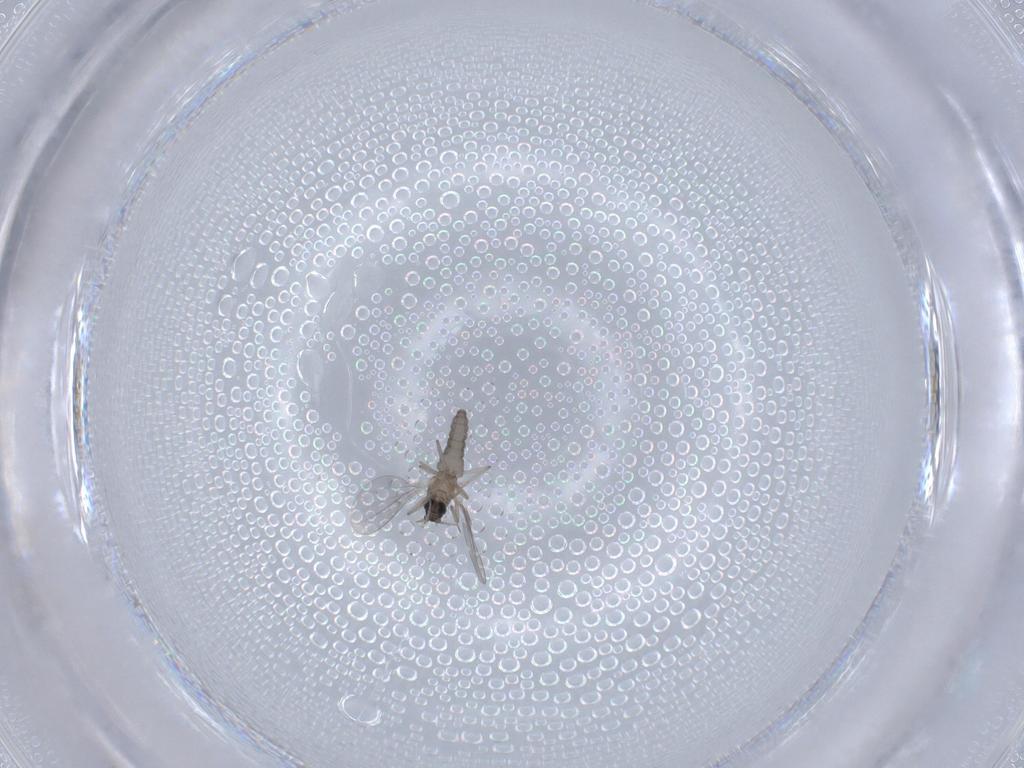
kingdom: Animalia
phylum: Arthropoda
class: Insecta
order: Diptera
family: Cecidomyiidae
